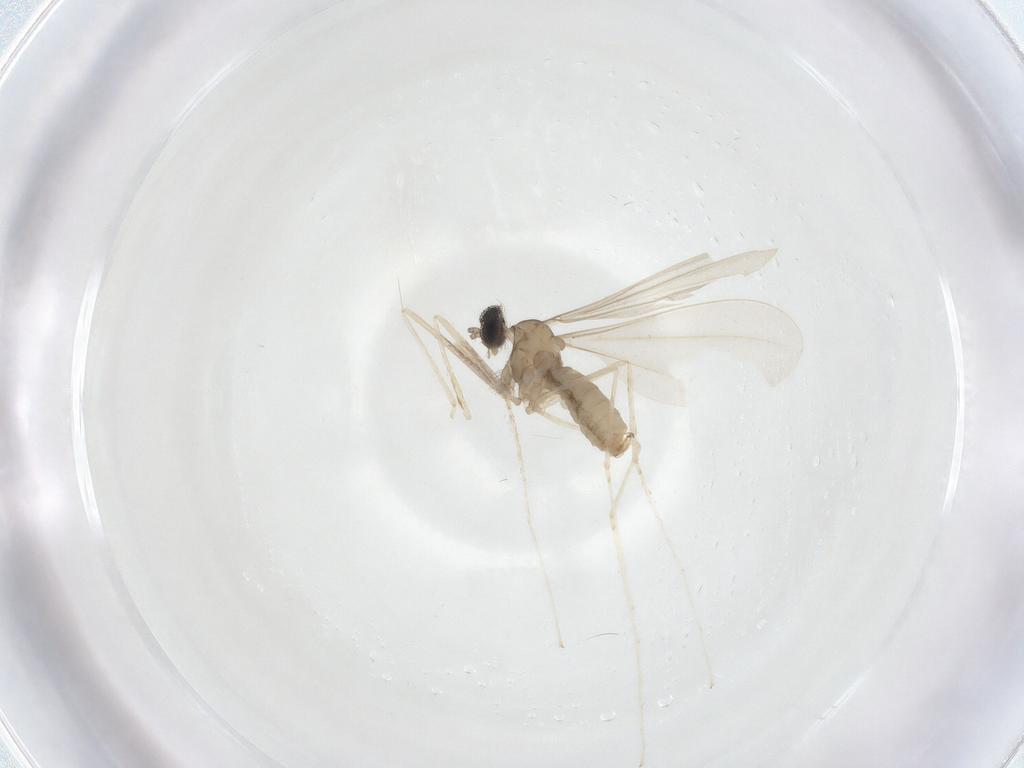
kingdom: Animalia
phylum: Arthropoda
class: Insecta
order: Diptera
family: Cecidomyiidae
